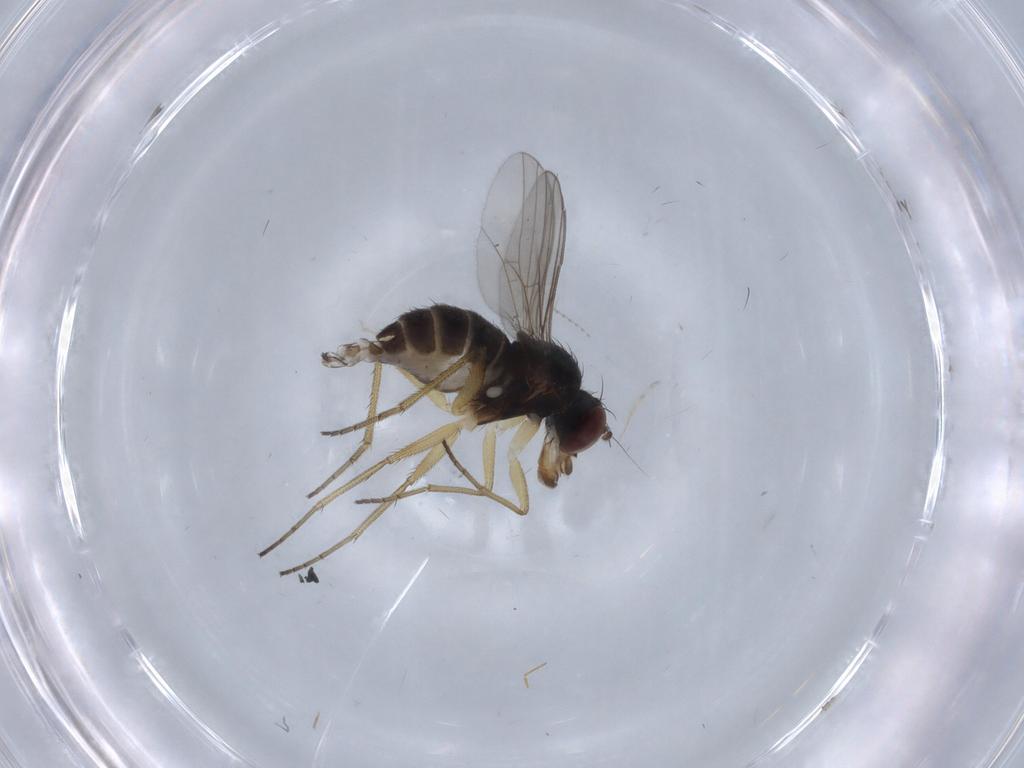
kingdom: Animalia
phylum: Arthropoda
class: Insecta
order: Diptera
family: Dolichopodidae
